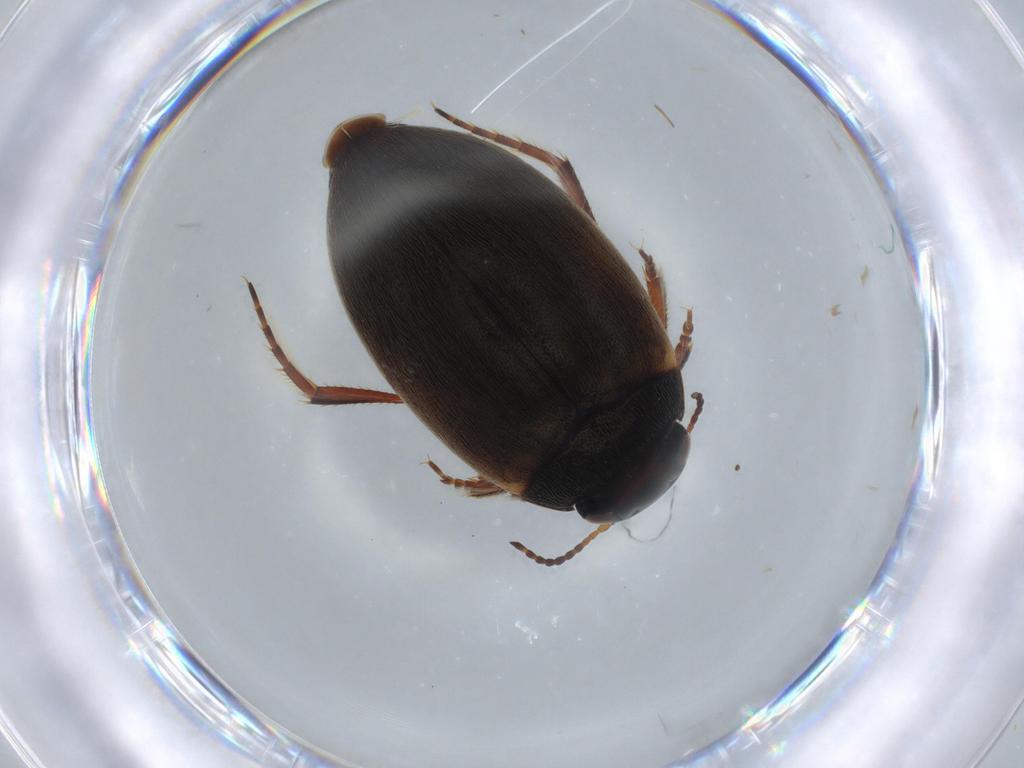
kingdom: Animalia
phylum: Arthropoda
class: Insecta
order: Coleoptera
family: Dytiscidae
